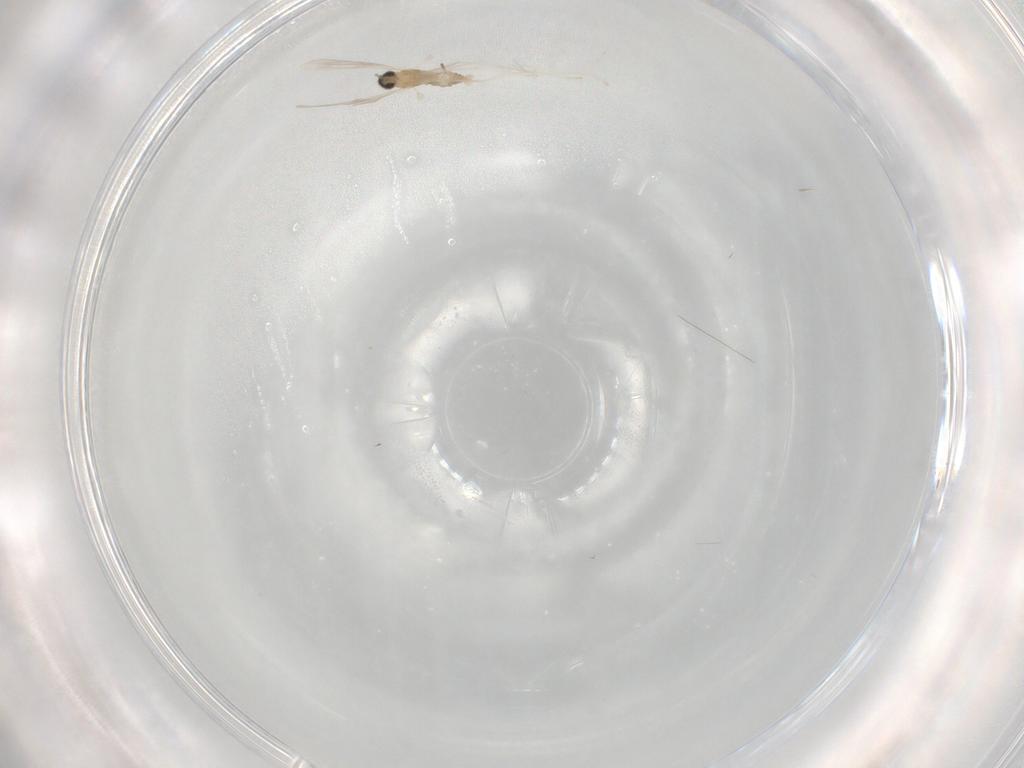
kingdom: Animalia
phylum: Arthropoda
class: Insecta
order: Diptera
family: Cecidomyiidae
